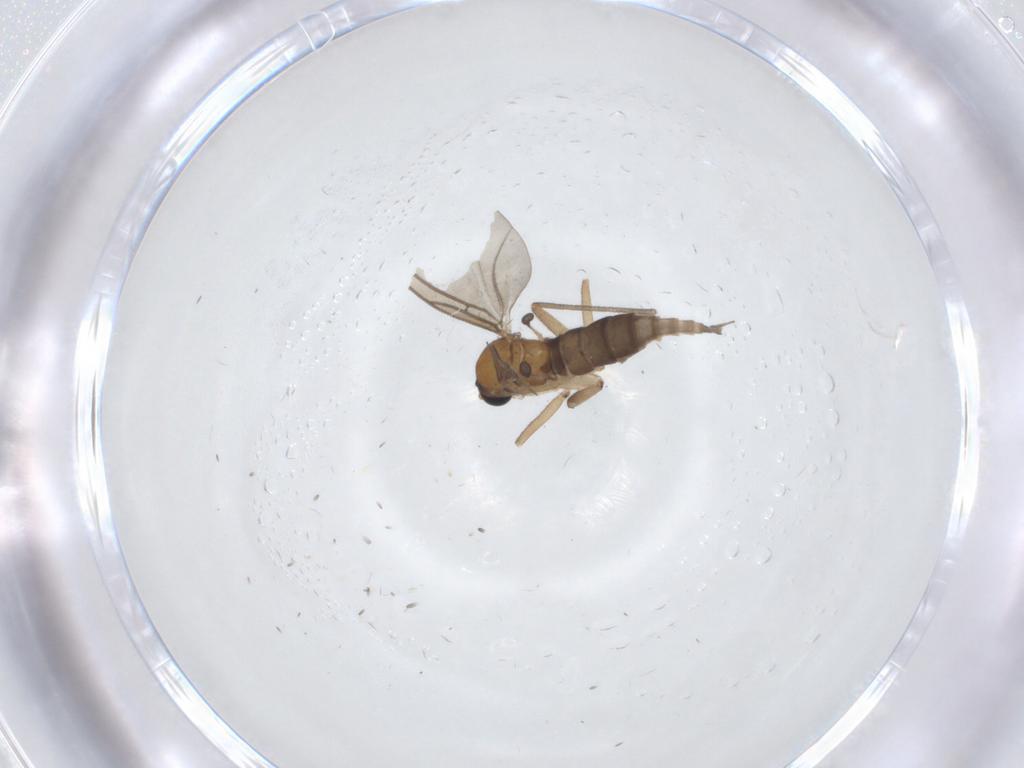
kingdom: Animalia
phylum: Arthropoda
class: Insecta
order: Diptera
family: Sciaridae
